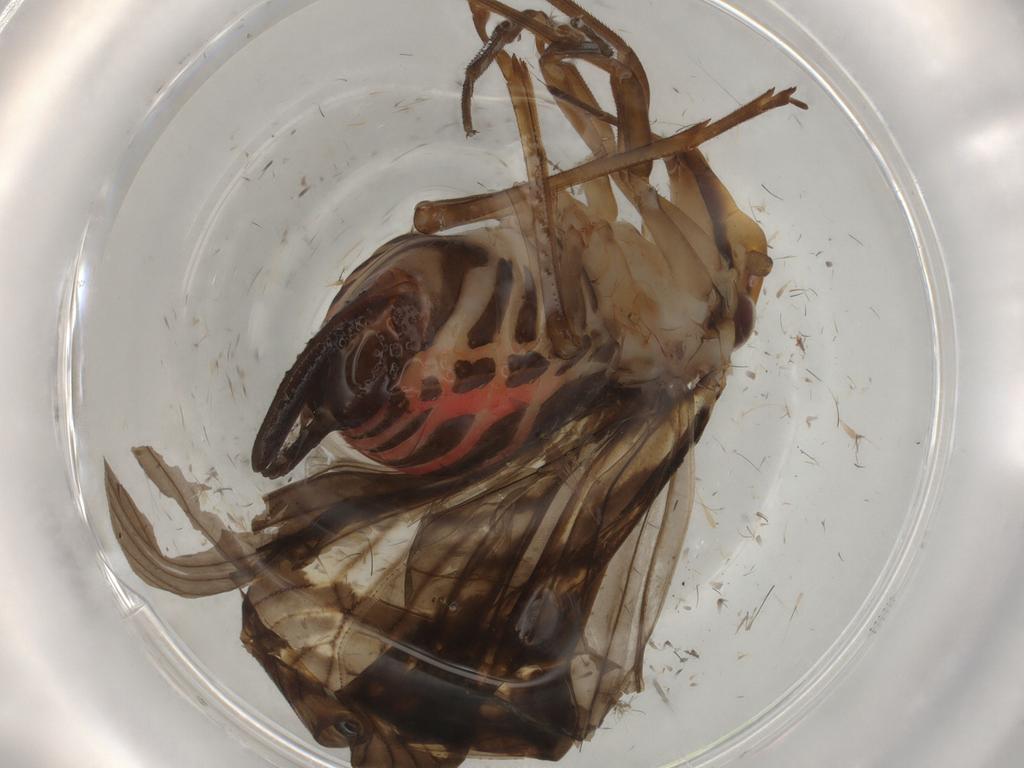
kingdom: Animalia
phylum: Arthropoda
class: Insecta
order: Hemiptera
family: Cixiidae
